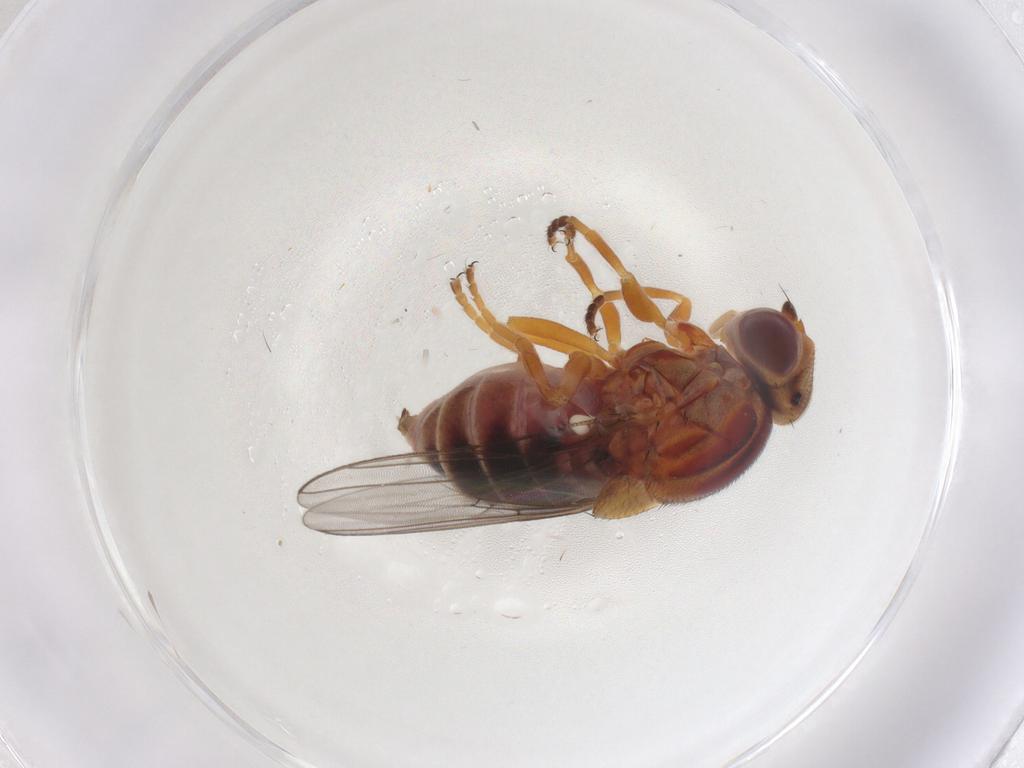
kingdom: Animalia
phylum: Arthropoda
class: Insecta
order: Diptera
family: Chloropidae
